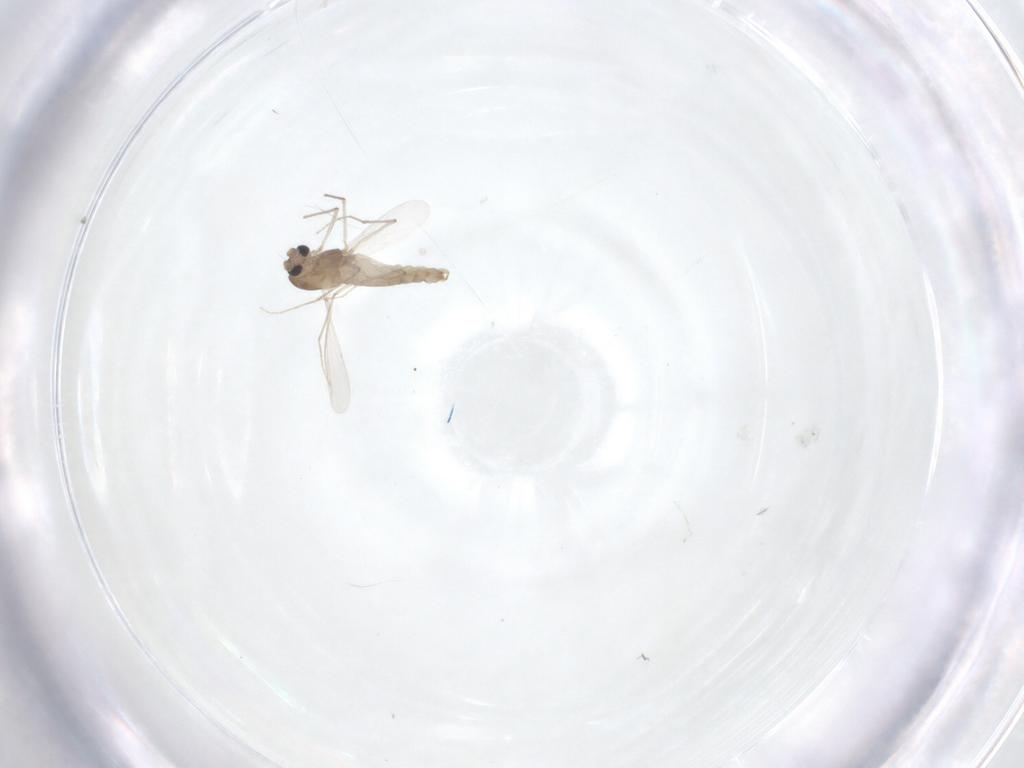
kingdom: Animalia
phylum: Arthropoda
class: Insecta
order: Diptera
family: Chironomidae
